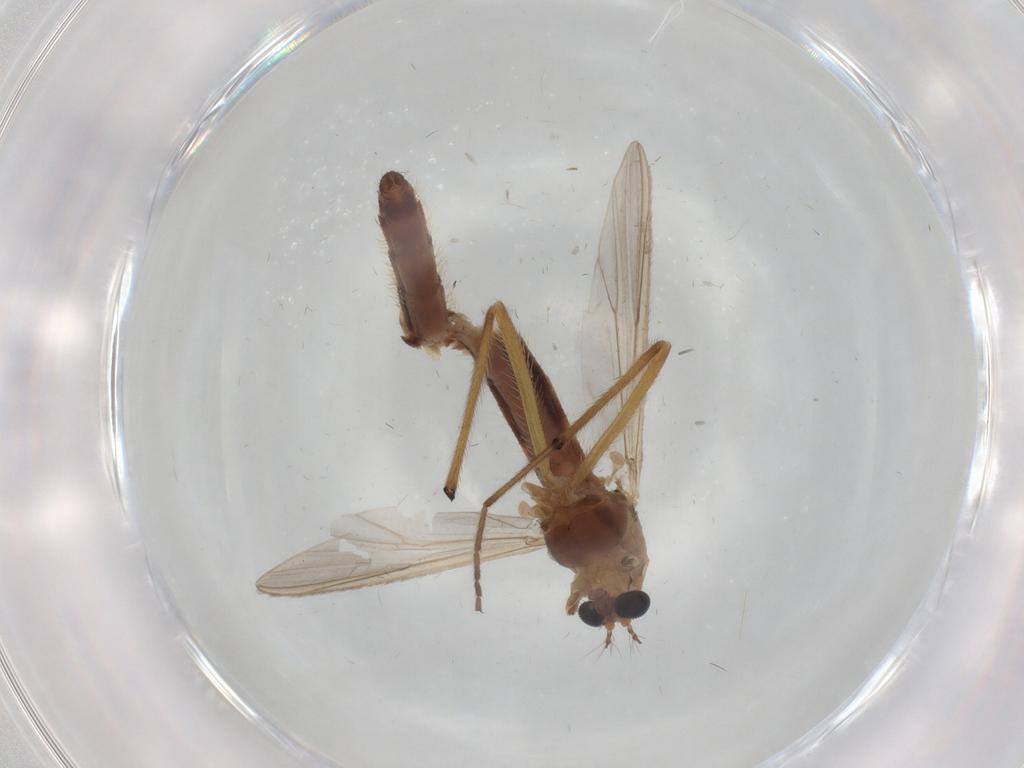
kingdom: Animalia
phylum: Arthropoda
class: Insecta
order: Diptera
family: Chironomidae
